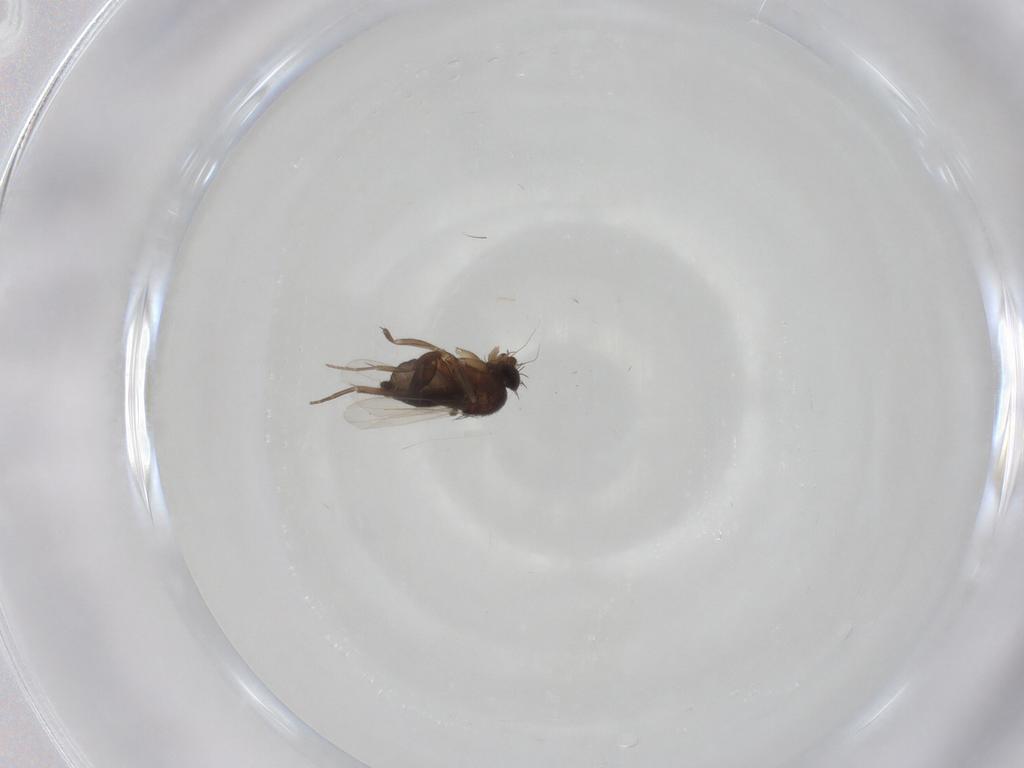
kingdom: Animalia
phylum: Arthropoda
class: Insecta
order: Diptera
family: Phoridae
